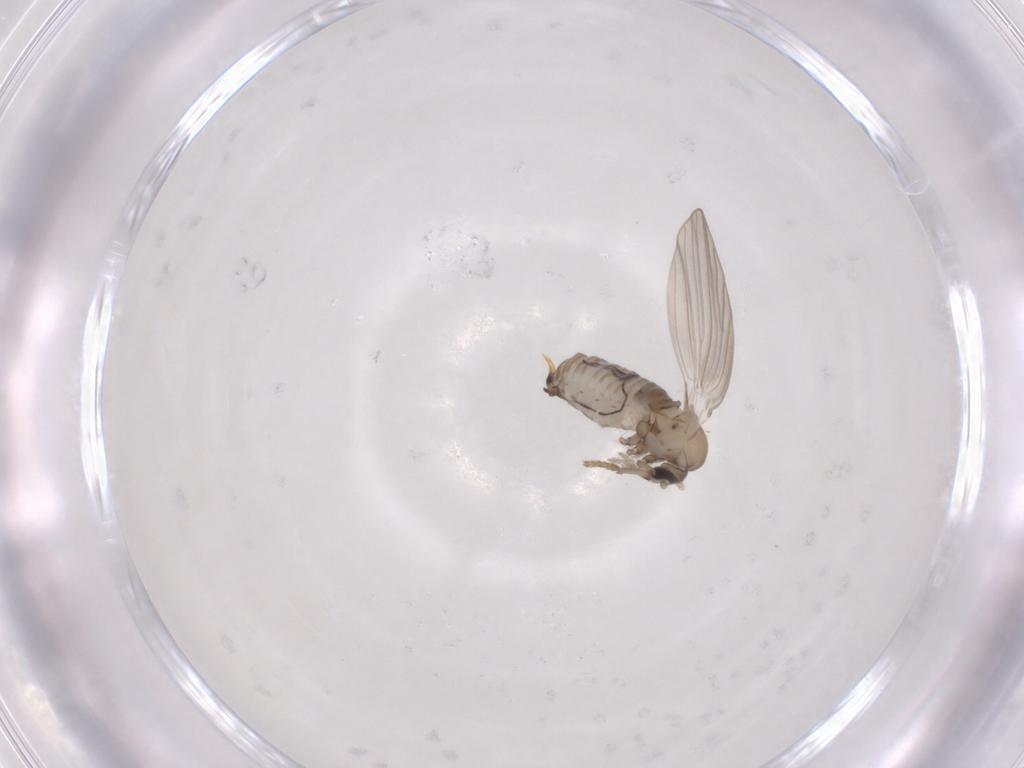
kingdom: Animalia
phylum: Arthropoda
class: Insecta
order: Diptera
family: Psychodidae
